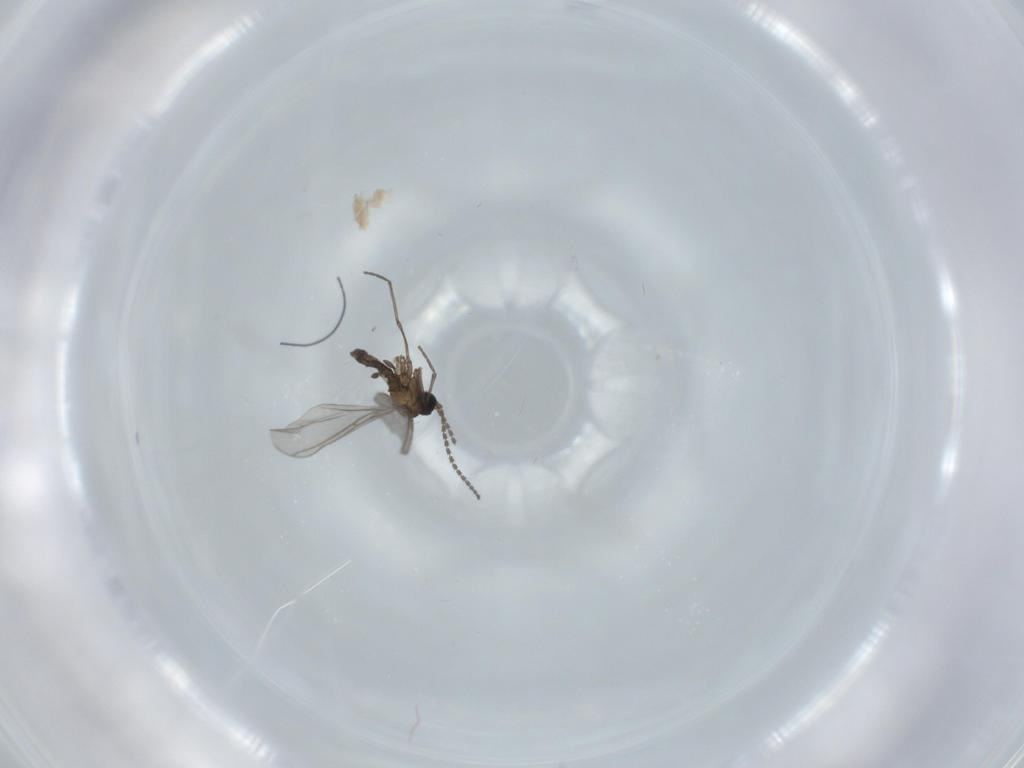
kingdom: Animalia
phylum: Arthropoda
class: Insecta
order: Diptera
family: Sciaridae
